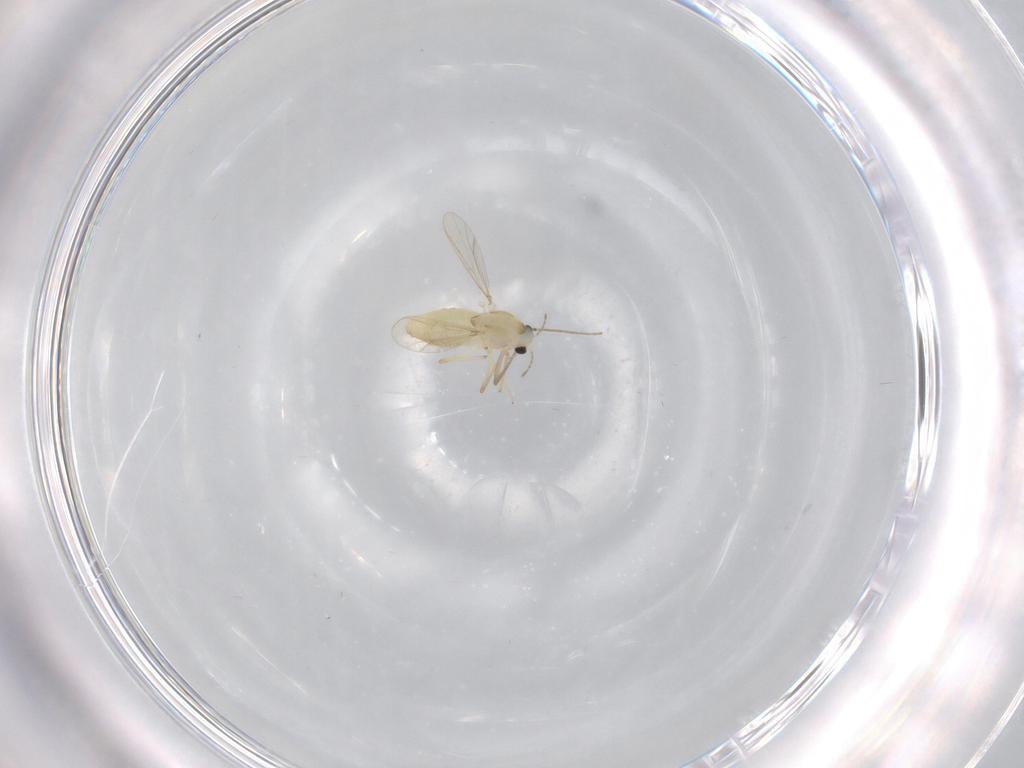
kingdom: Animalia
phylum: Arthropoda
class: Insecta
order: Diptera
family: Chironomidae
